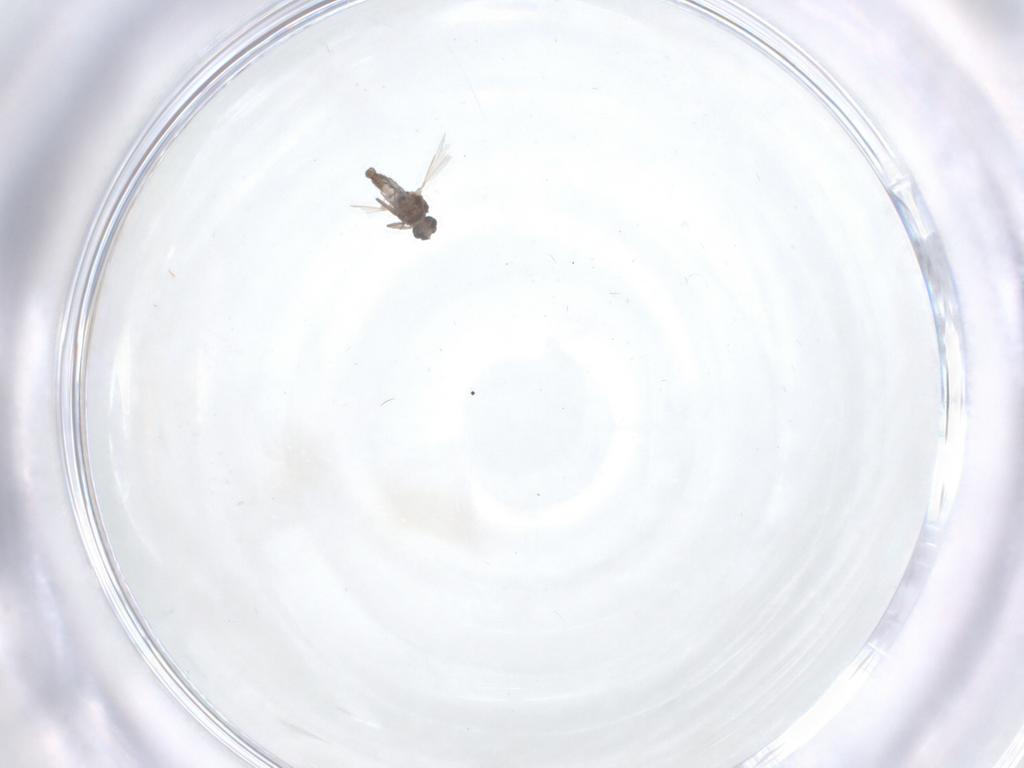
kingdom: Animalia
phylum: Arthropoda
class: Insecta
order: Diptera
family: Ceratopogonidae
